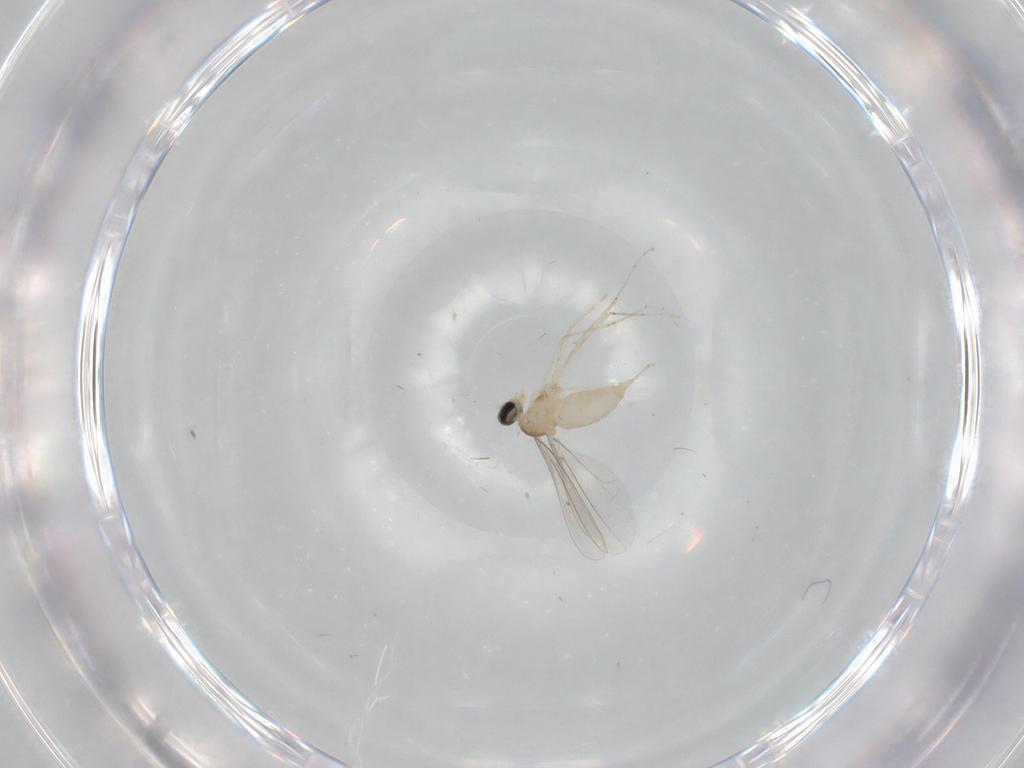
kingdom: Animalia
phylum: Arthropoda
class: Insecta
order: Diptera
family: Cecidomyiidae
